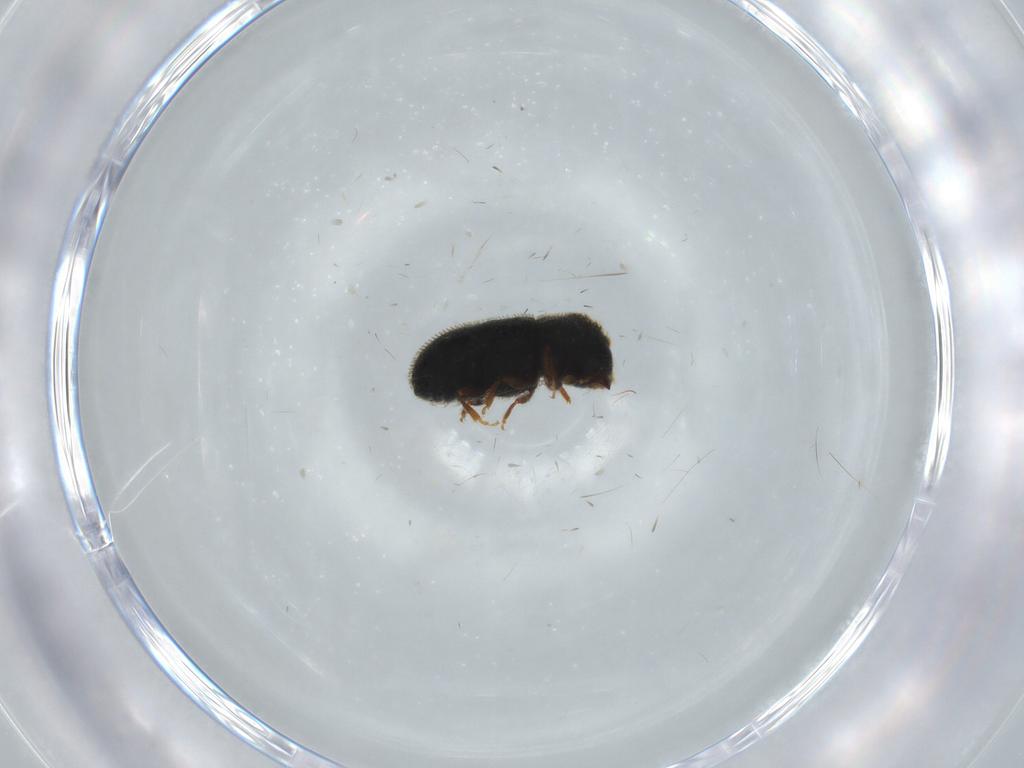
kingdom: Animalia
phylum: Arthropoda
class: Insecta
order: Coleoptera
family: Curculionidae
